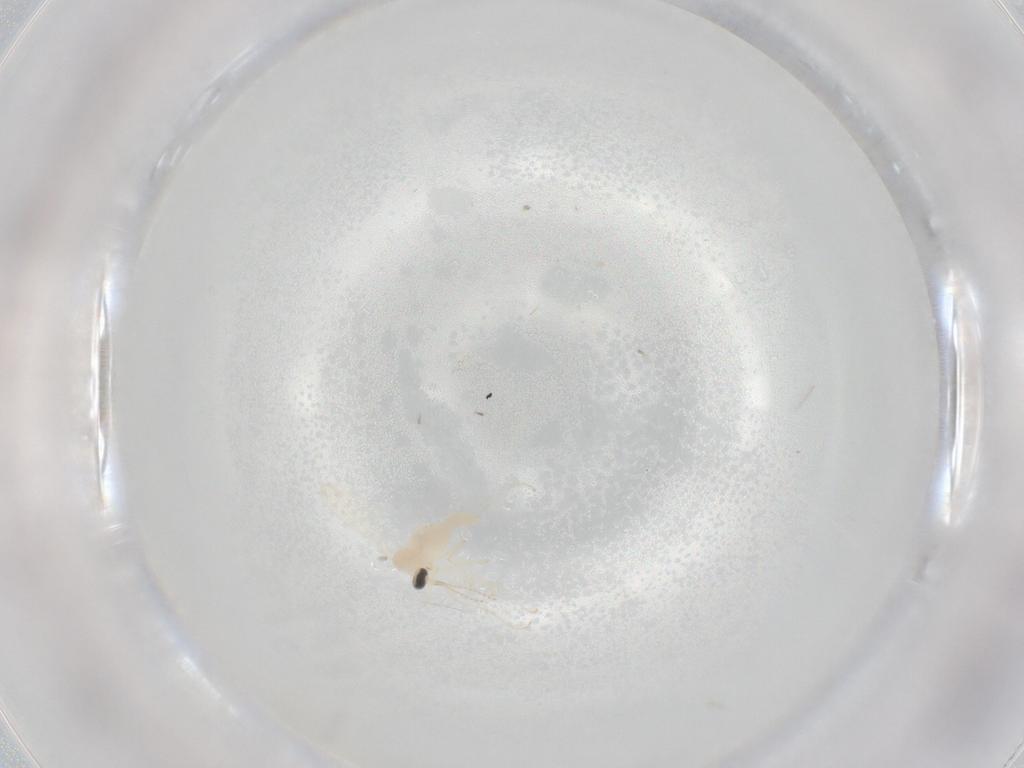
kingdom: Animalia
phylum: Arthropoda
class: Insecta
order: Diptera
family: Cecidomyiidae
